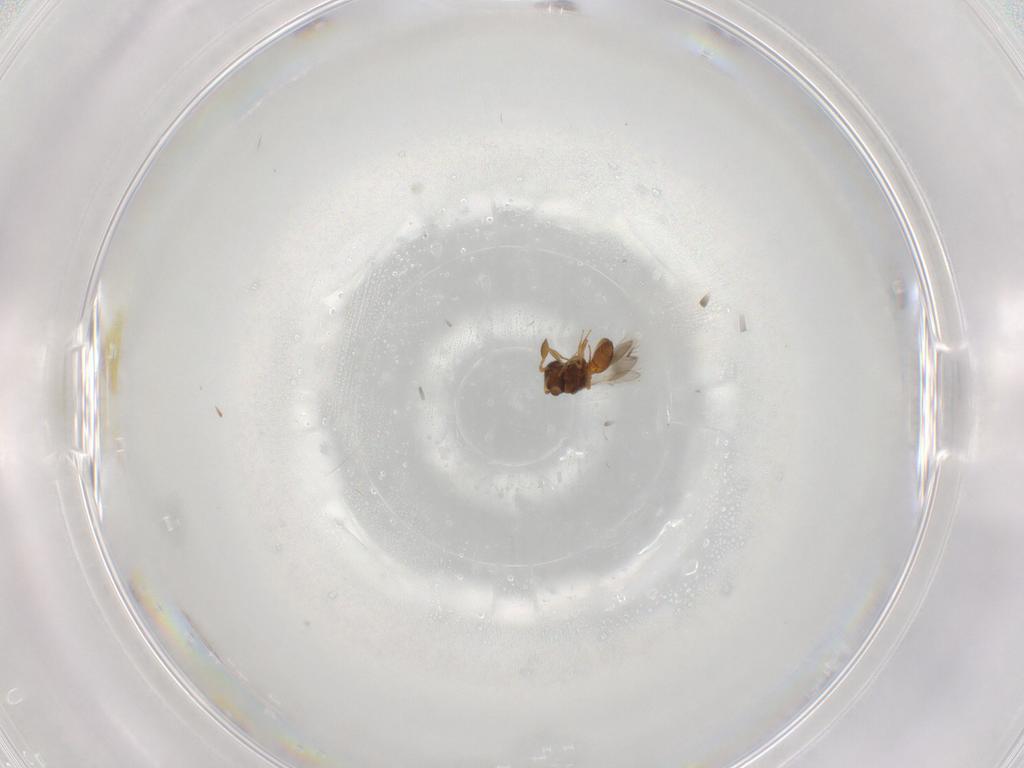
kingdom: Animalia
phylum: Arthropoda
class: Insecta
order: Hymenoptera
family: Scelionidae
